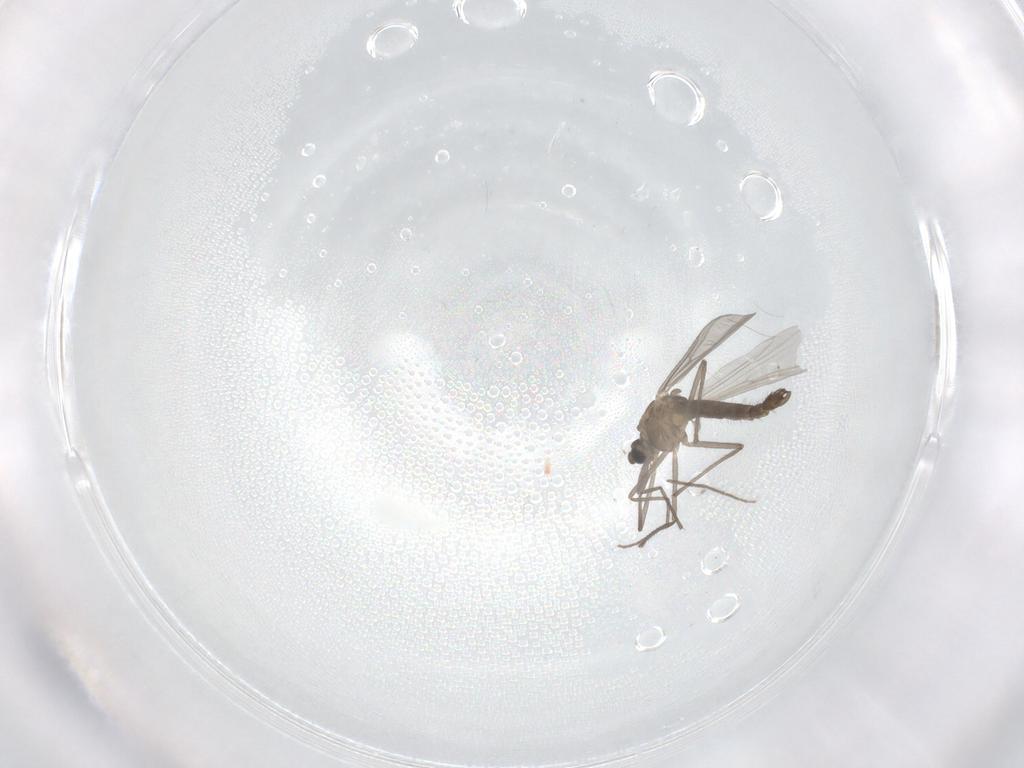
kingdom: Animalia
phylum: Arthropoda
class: Insecta
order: Diptera
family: Chironomidae
